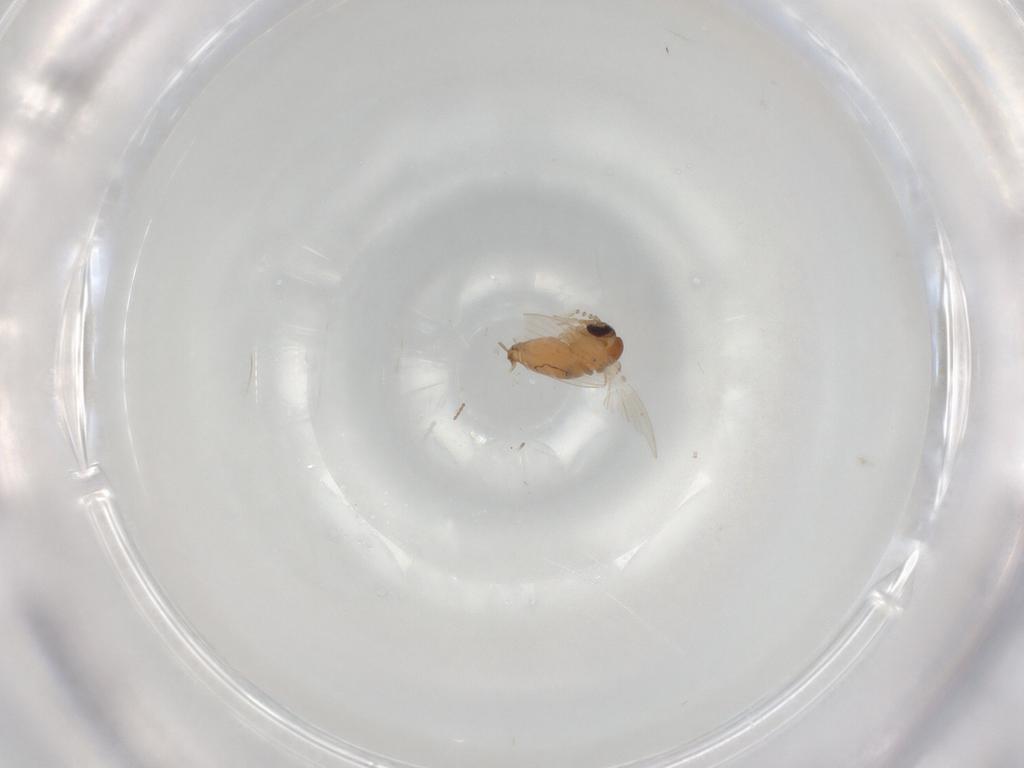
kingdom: Animalia
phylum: Arthropoda
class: Insecta
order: Diptera
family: Psychodidae
